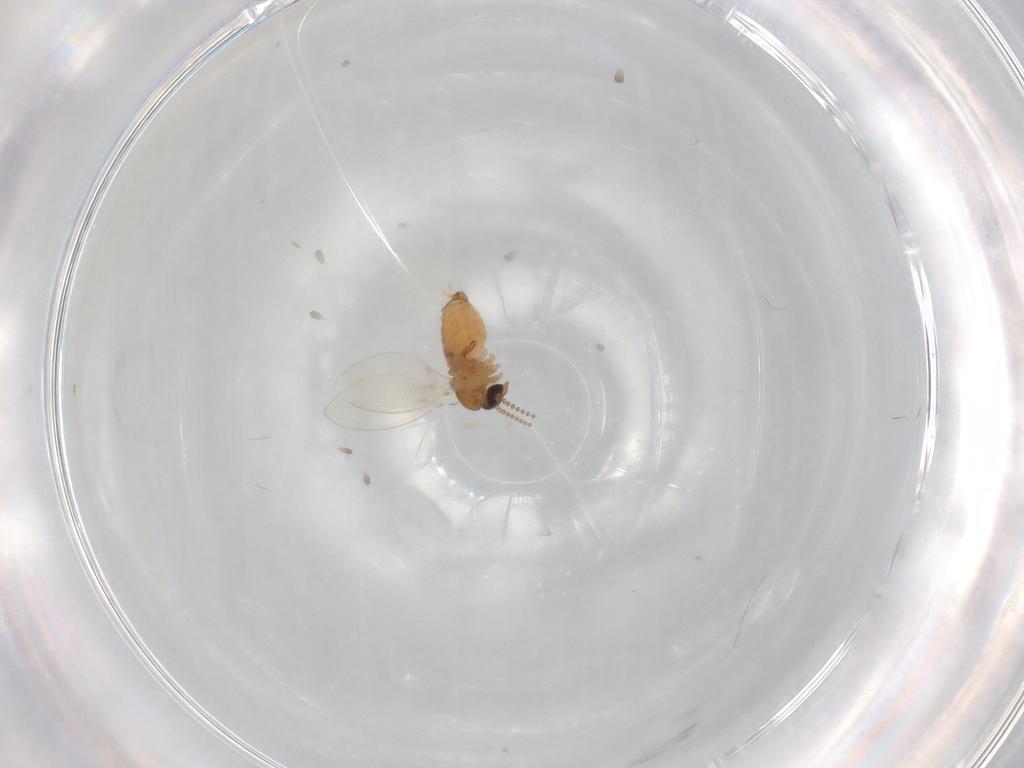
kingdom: Animalia
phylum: Arthropoda
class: Insecta
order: Diptera
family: Psychodidae
